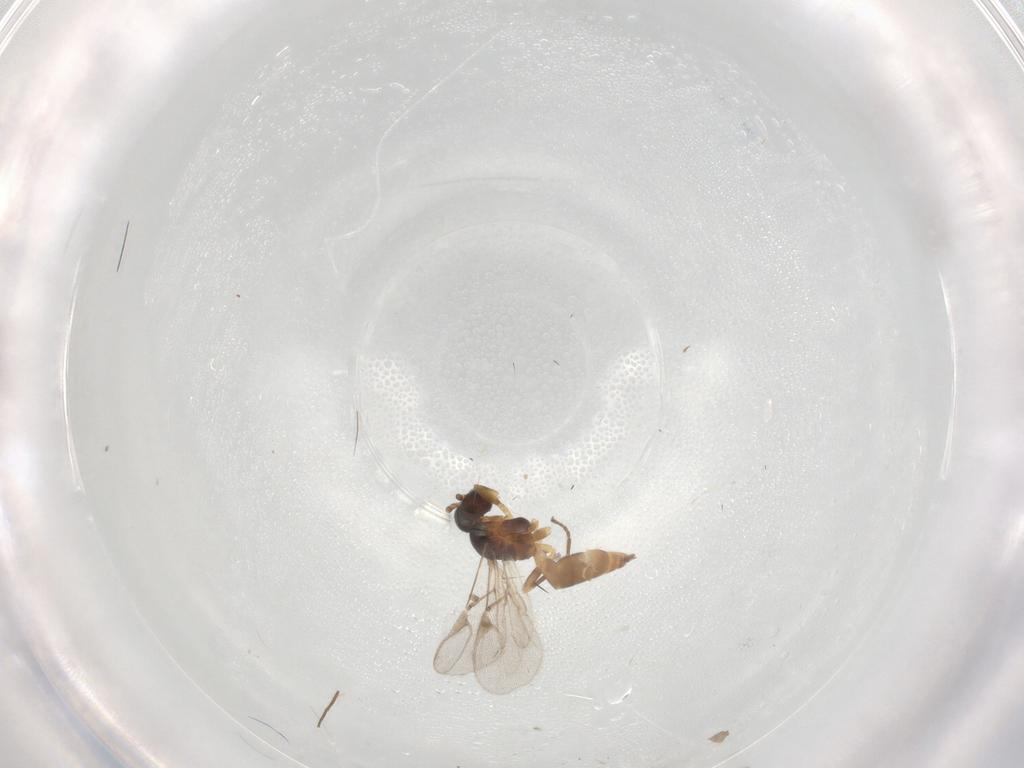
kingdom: Animalia
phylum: Arthropoda
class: Insecta
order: Hymenoptera
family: Braconidae
